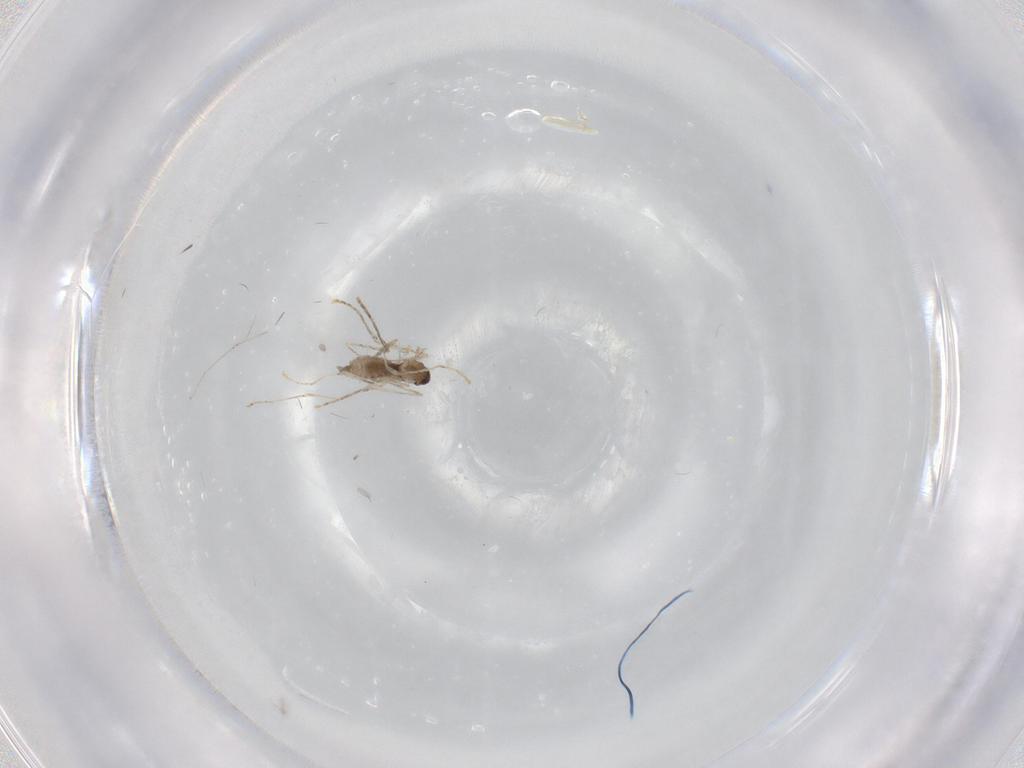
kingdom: Animalia
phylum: Arthropoda
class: Insecta
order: Diptera
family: Cecidomyiidae
